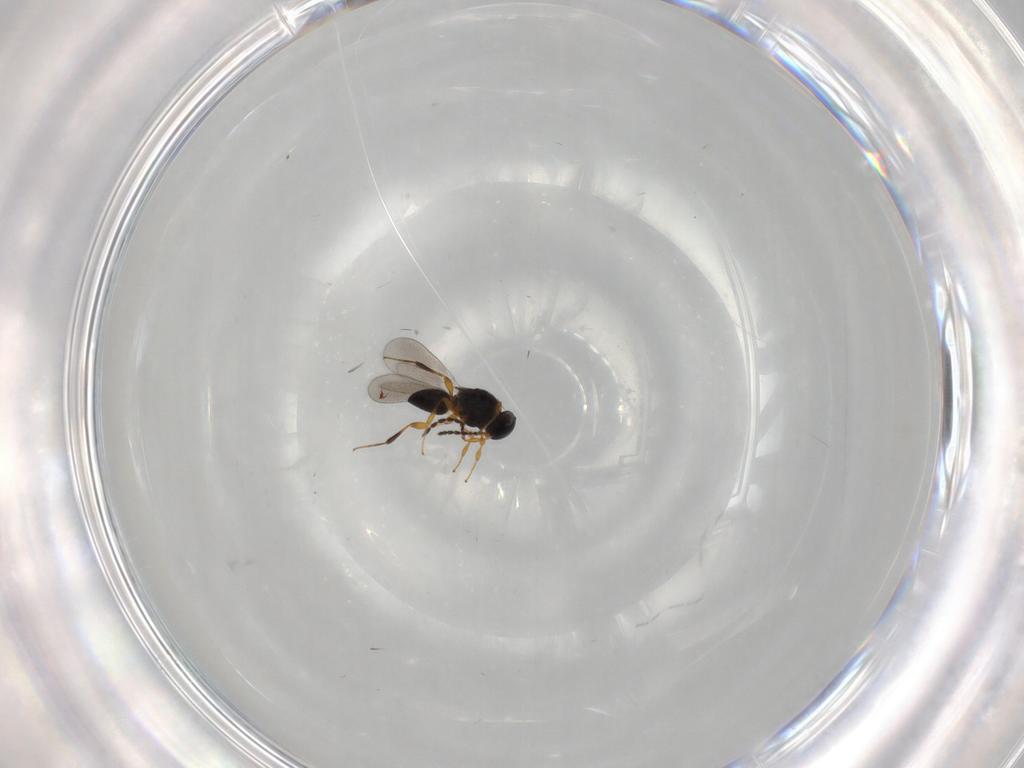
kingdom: Animalia
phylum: Arthropoda
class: Insecta
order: Hymenoptera
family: Platygastridae
